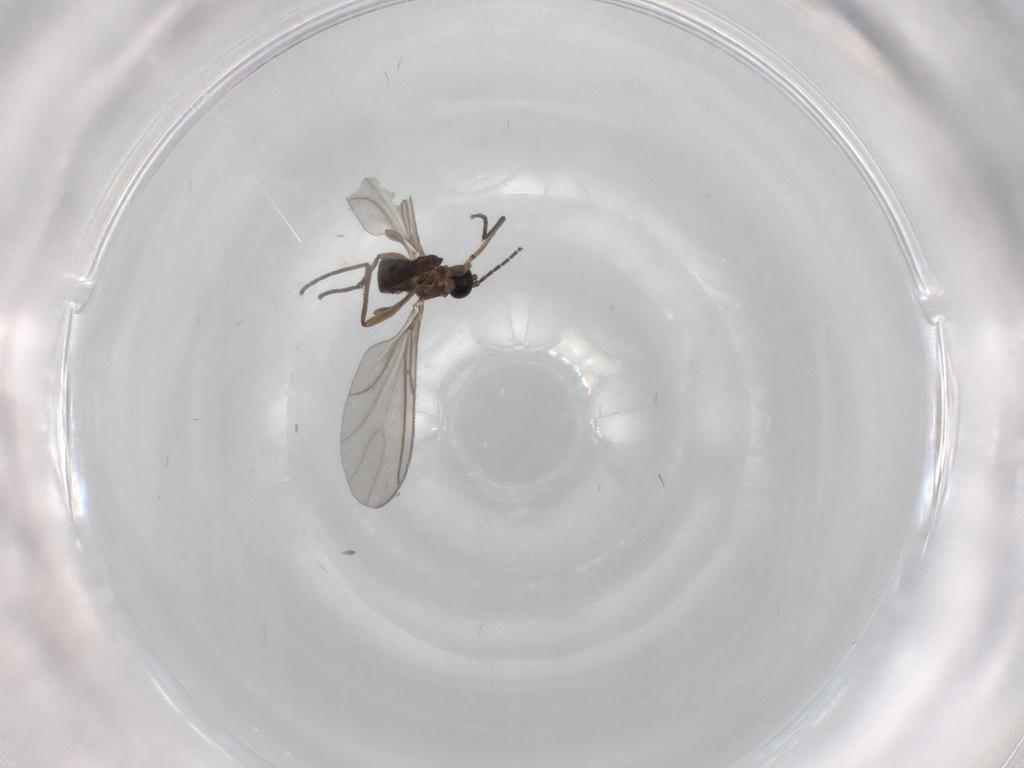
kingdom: Animalia
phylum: Arthropoda
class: Insecta
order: Diptera
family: Sciaridae
